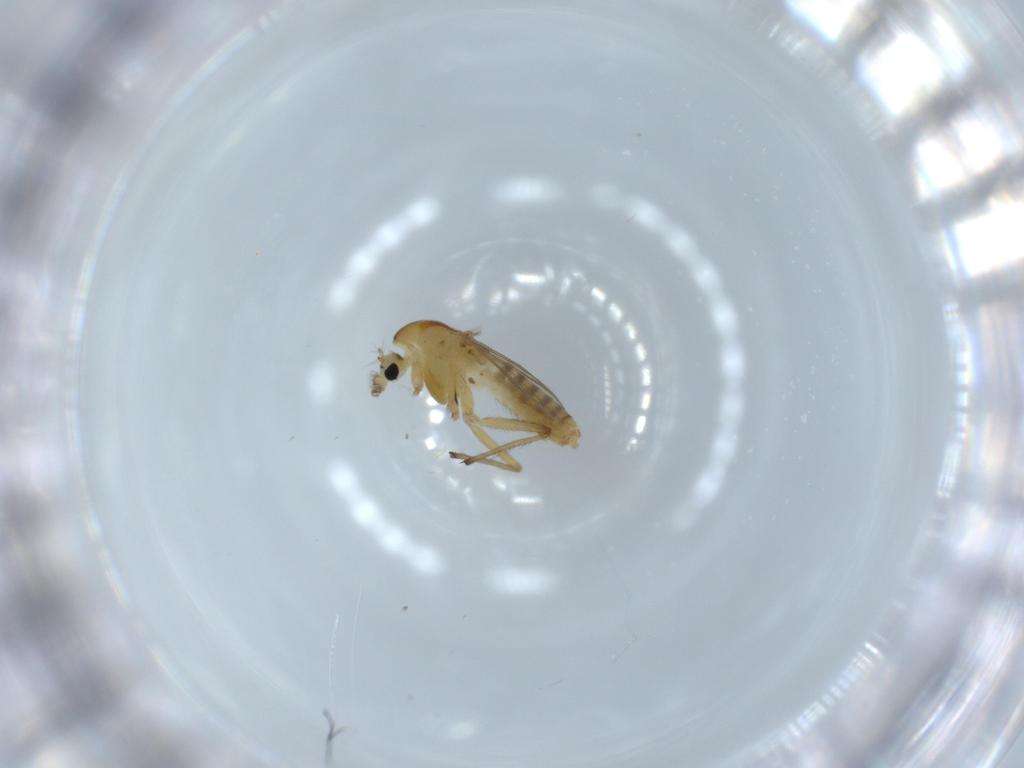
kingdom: Animalia
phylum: Arthropoda
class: Insecta
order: Diptera
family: Chironomidae
